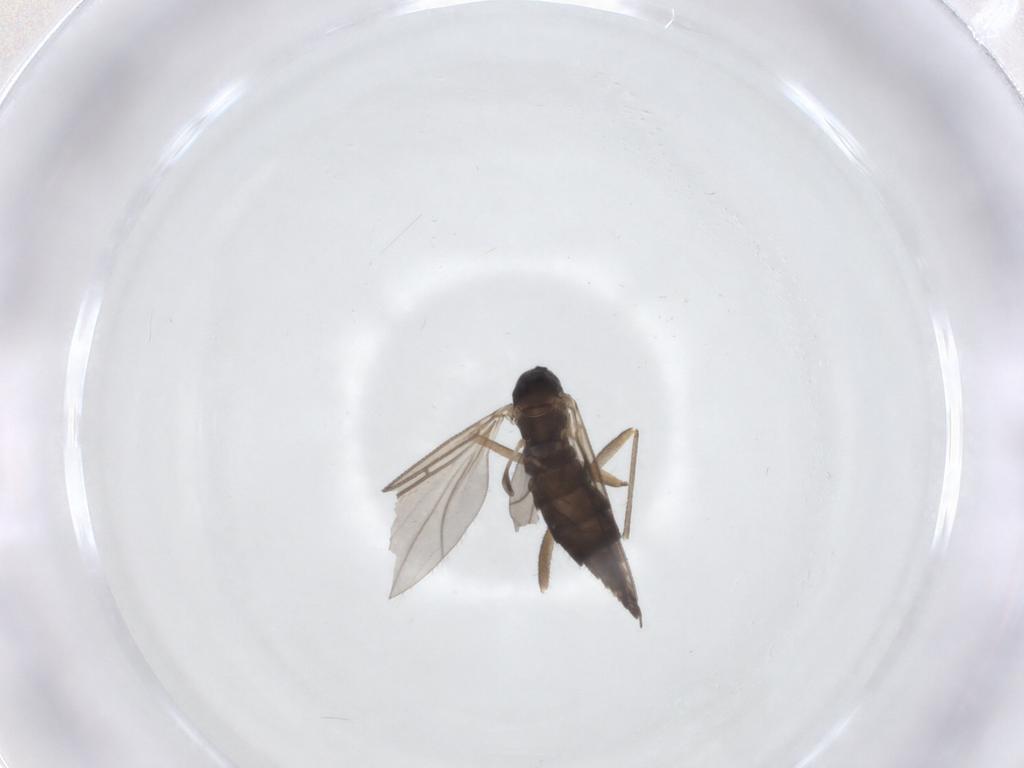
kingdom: Animalia
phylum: Arthropoda
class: Insecta
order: Diptera
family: Sciaridae
